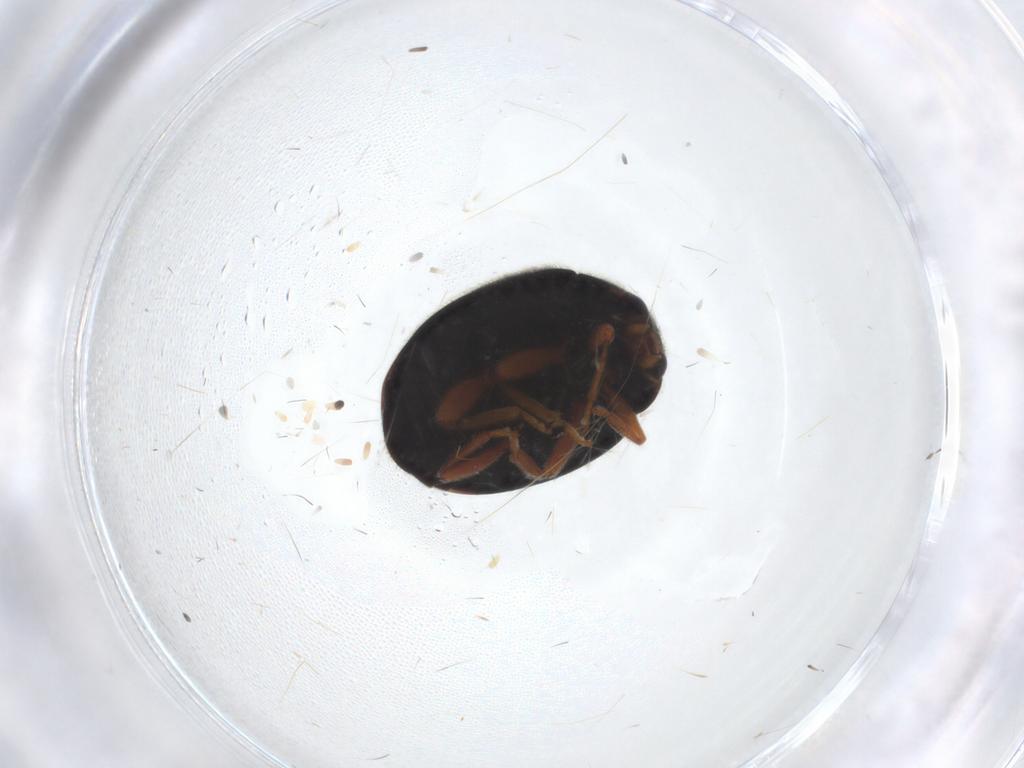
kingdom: Animalia
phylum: Arthropoda
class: Insecta
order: Coleoptera
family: Coccinellidae
